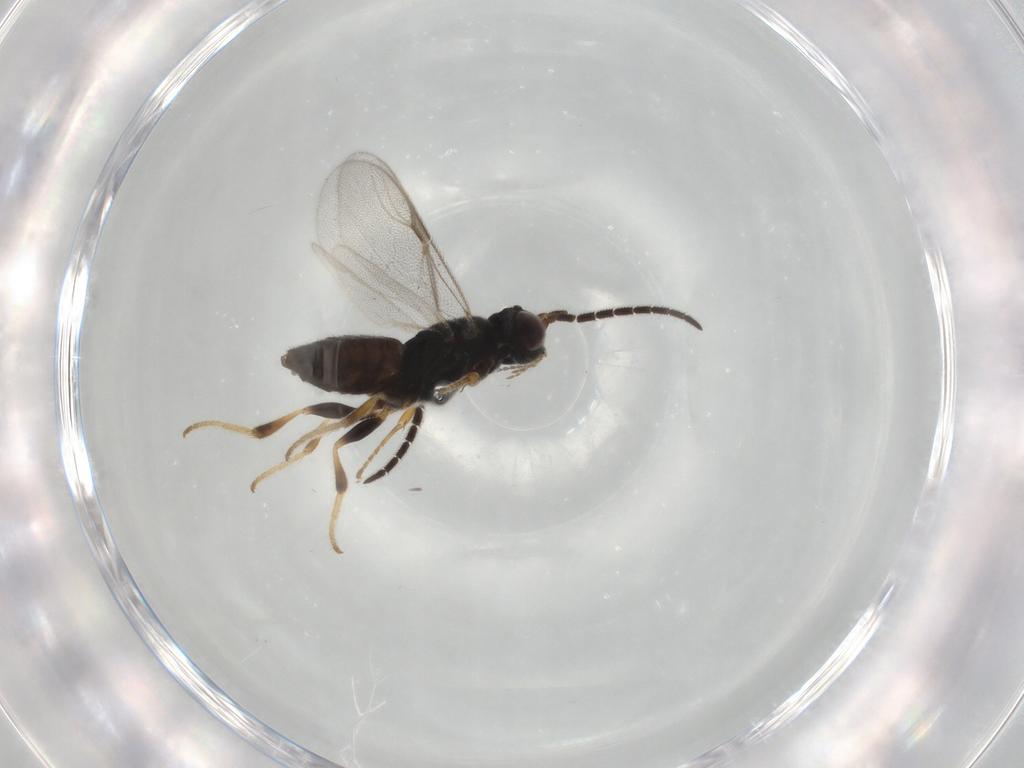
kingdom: Animalia
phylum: Arthropoda
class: Insecta
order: Hymenoptera
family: Dryinidae
